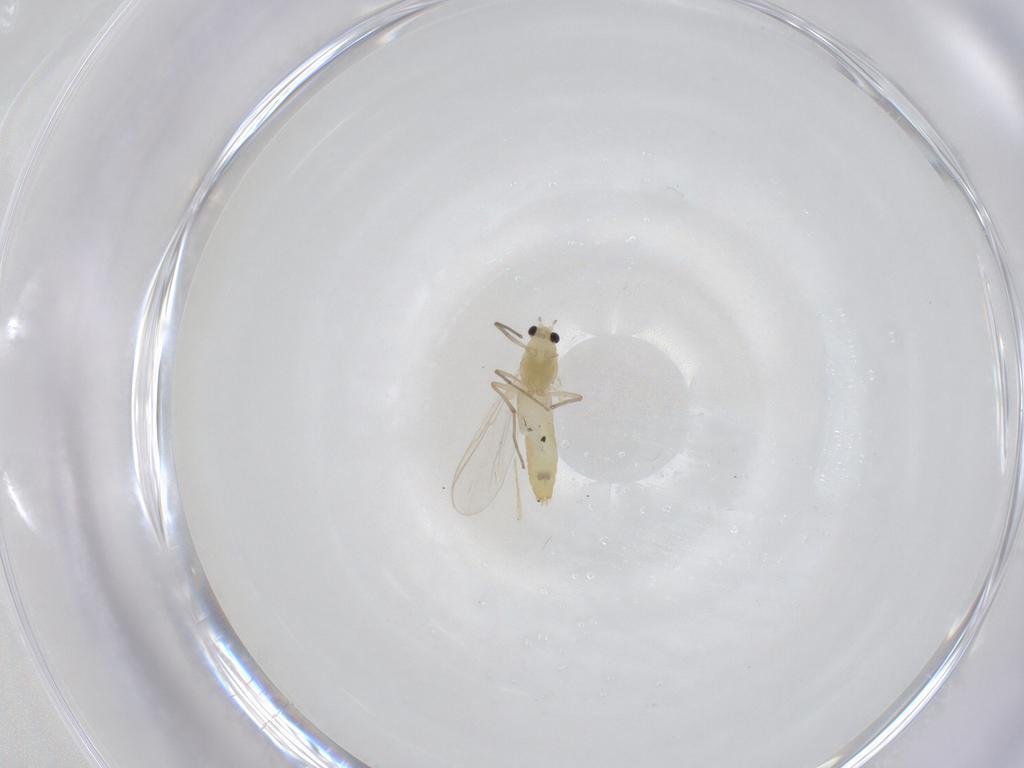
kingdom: Animalia
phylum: Arthropoda
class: Insecta
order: Diptera
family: Chironomidae
